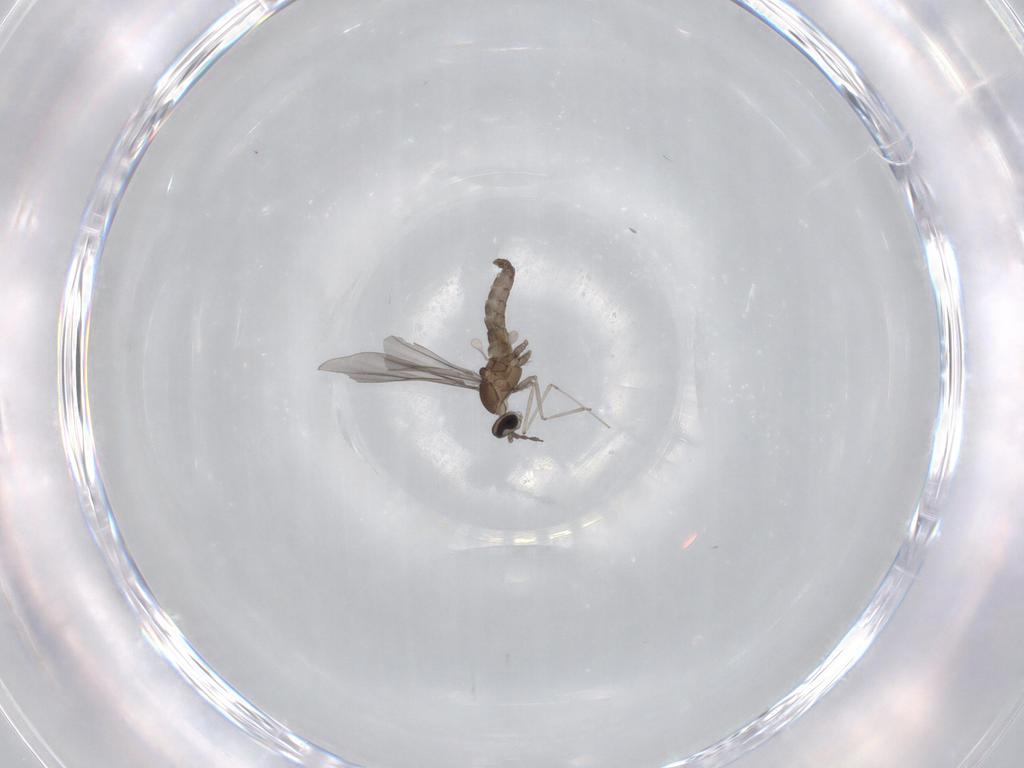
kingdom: Animalia
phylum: Arthropoda
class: Insecta
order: Diptera
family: Cecidomyiidae
